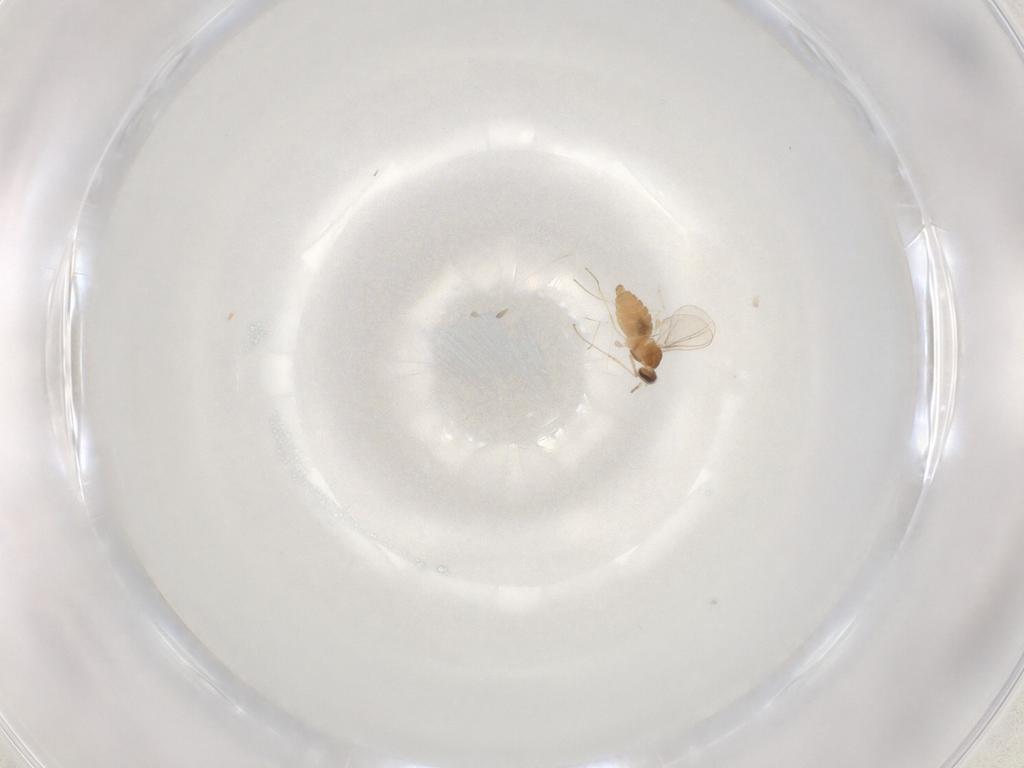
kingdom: Animalia
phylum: Arthropoda
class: Insecta
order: Diptera
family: Cecidomyiidae
